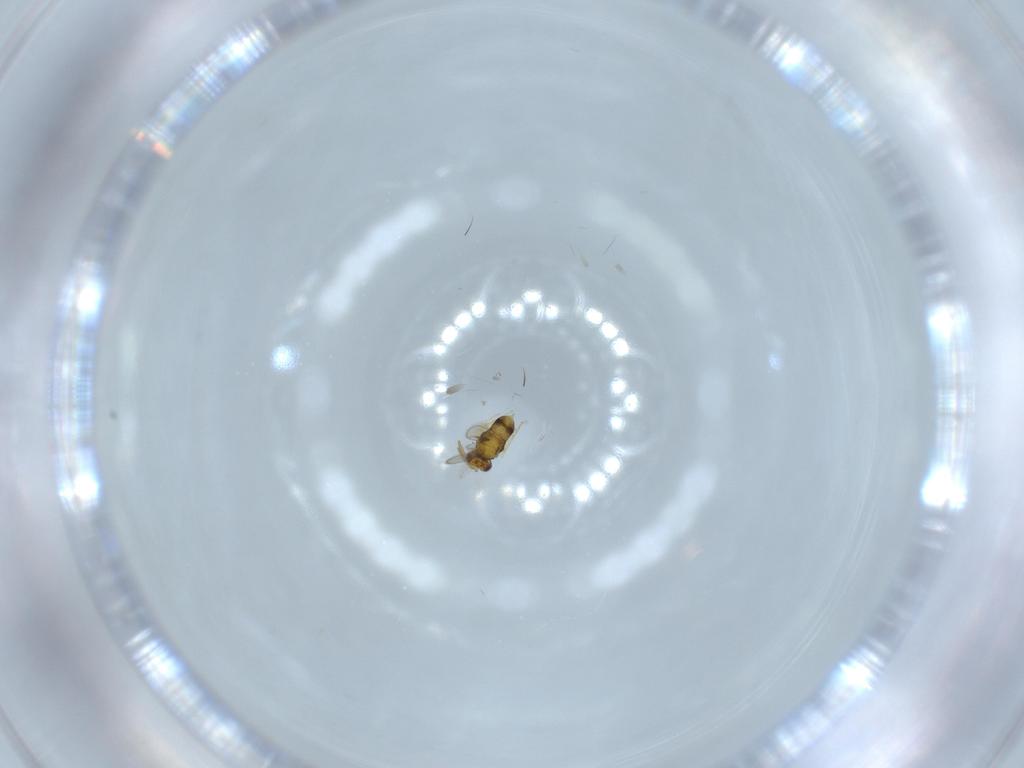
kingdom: Animalia
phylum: Arthropoda
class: Insecta
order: Hymenoptera
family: Aphelinidae
